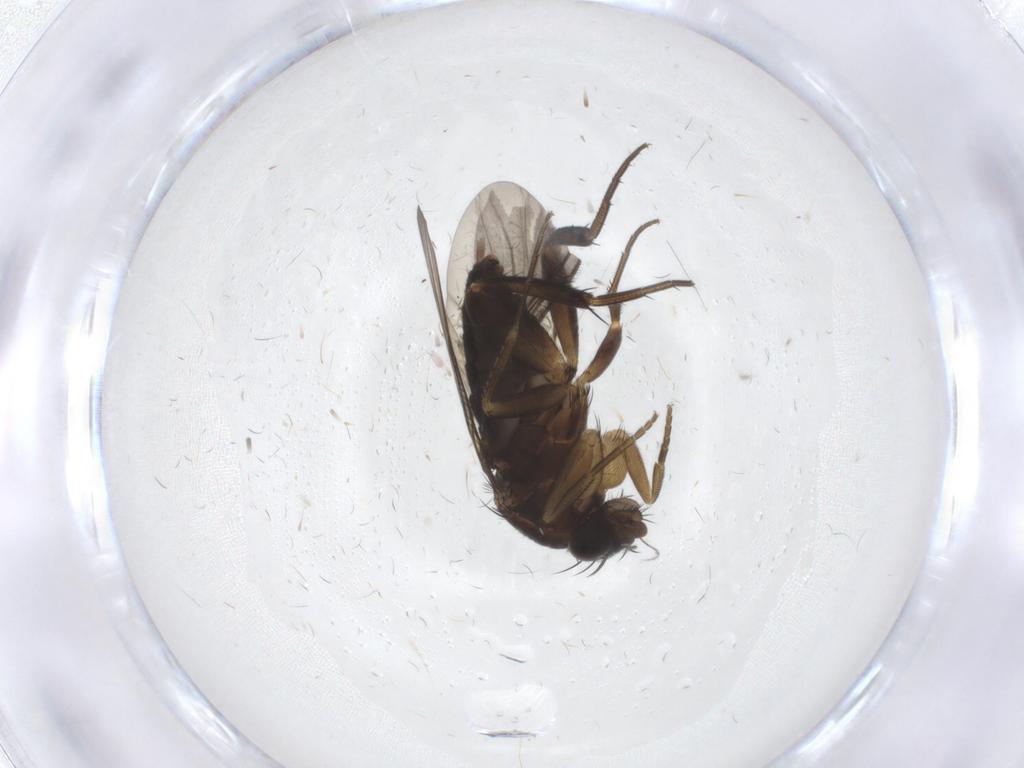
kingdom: Animalia
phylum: Arthropoda
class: Insecta
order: Diptera
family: Phoridae
